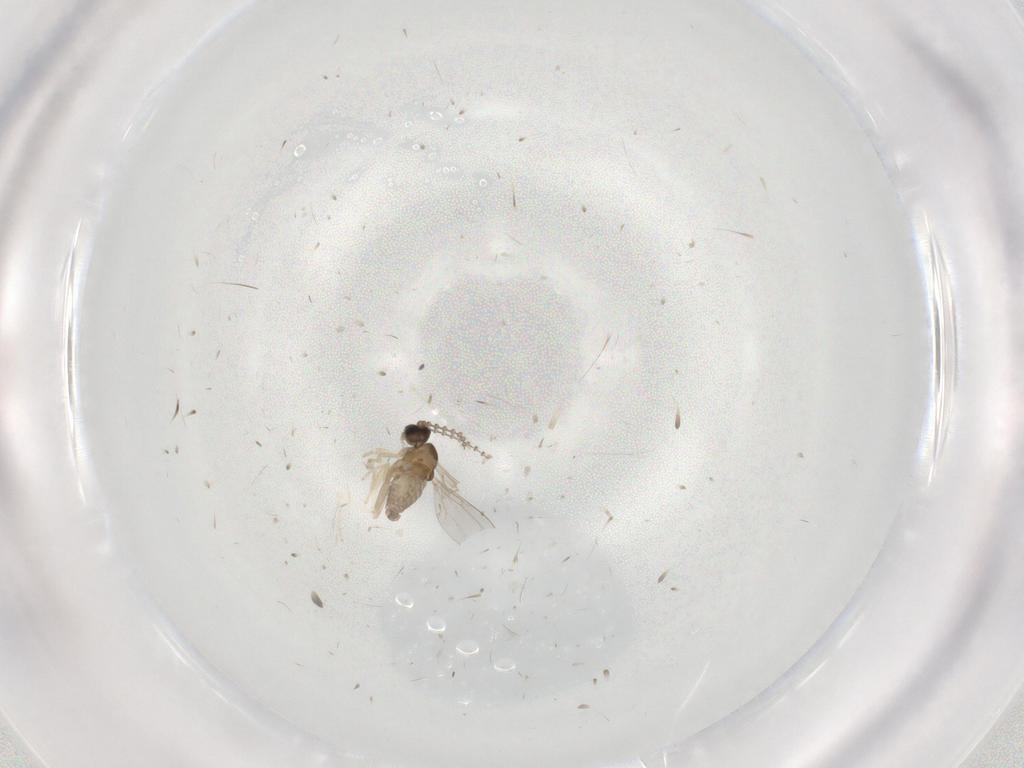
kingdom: Animalia
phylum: Arthropoda
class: Insecta
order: Diptera
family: Cecidomyiidae
